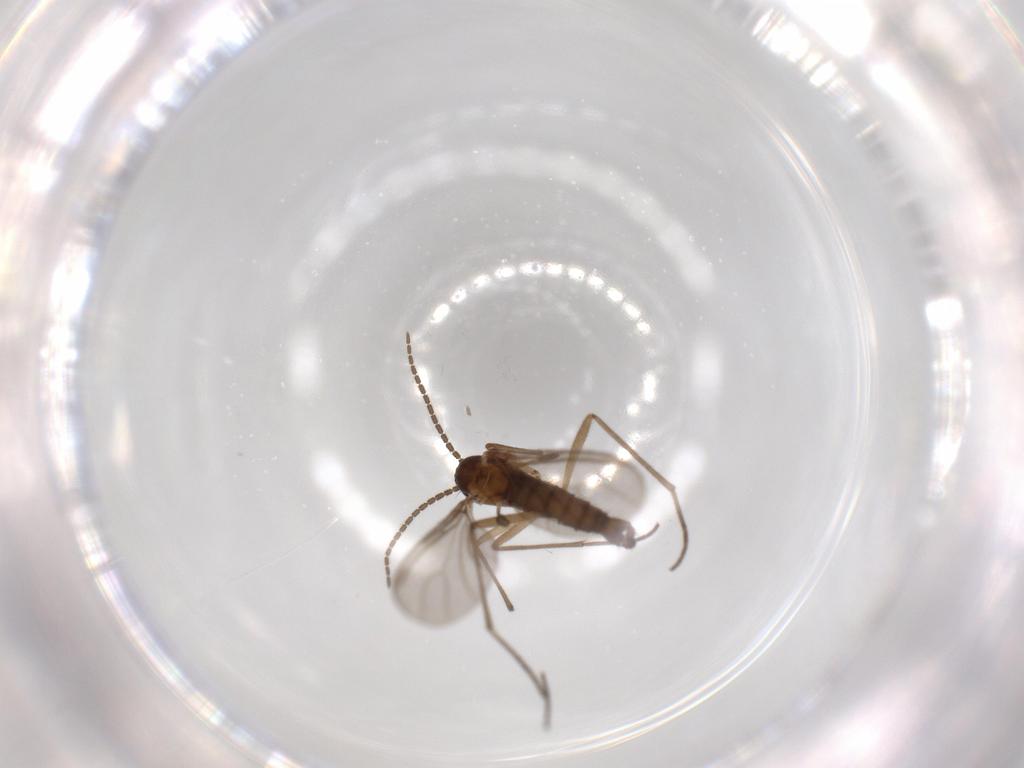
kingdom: Animalia
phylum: Arthropoda
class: Insecta
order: Diptera
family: Sciaridae
